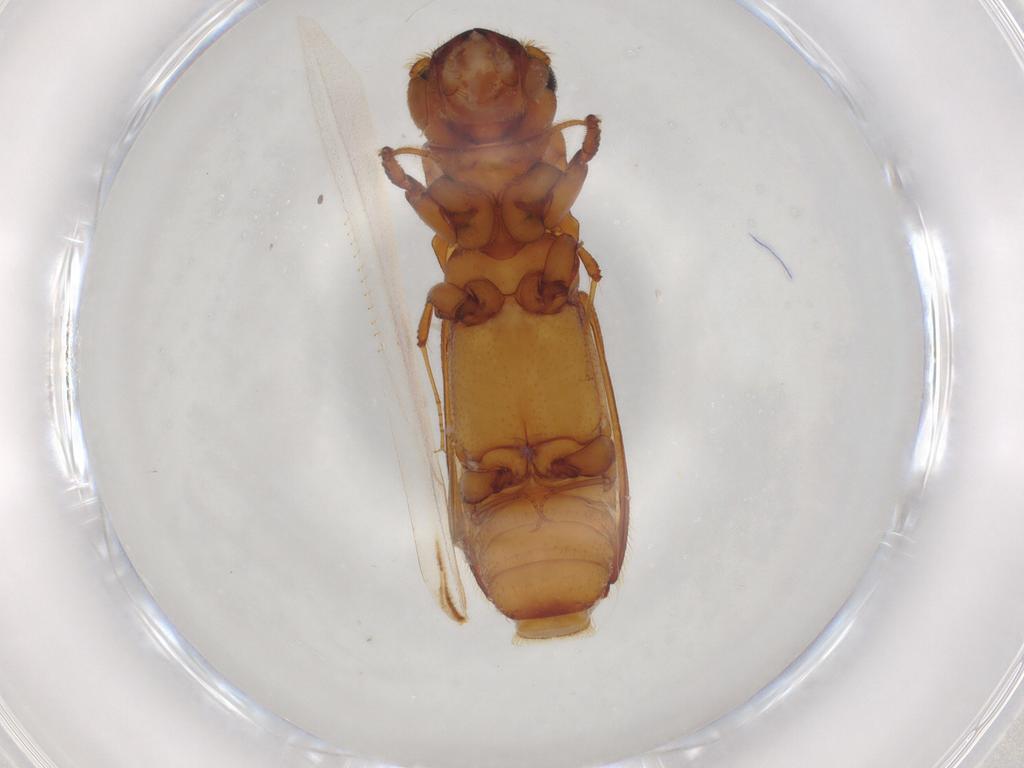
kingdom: Animalia
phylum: Arthropoda
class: Insecta
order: Coleoptera
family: Curculionidae
